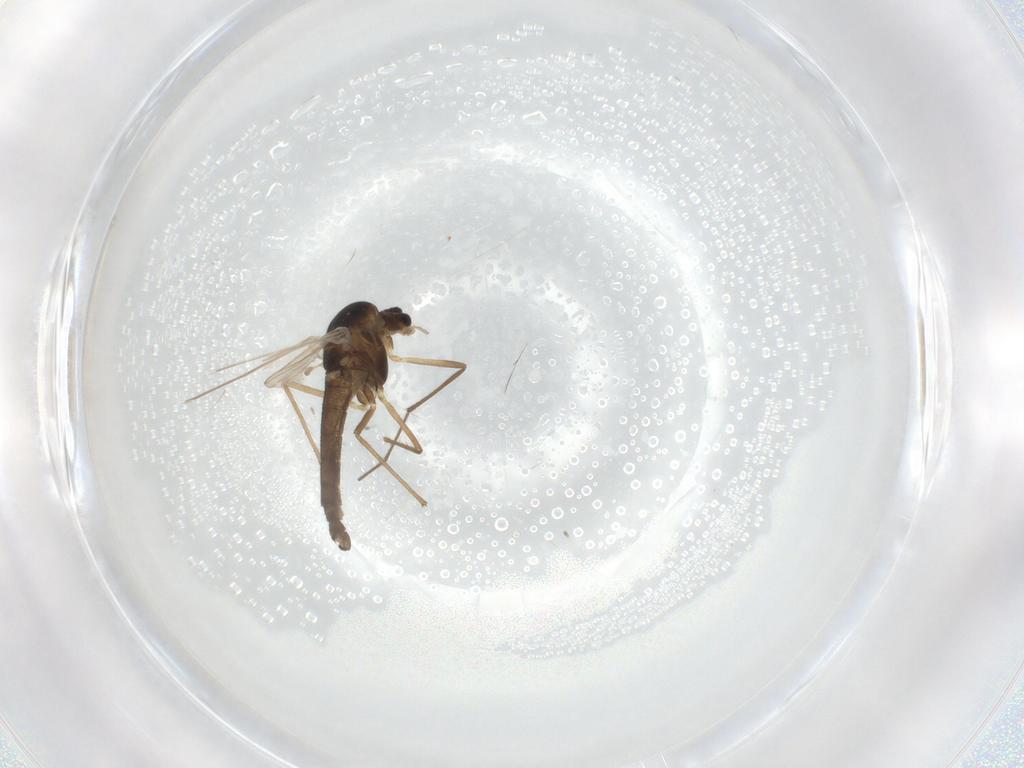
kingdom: Animalia
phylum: Arthropoda
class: Insecta
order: Diptera
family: Chironomidae
